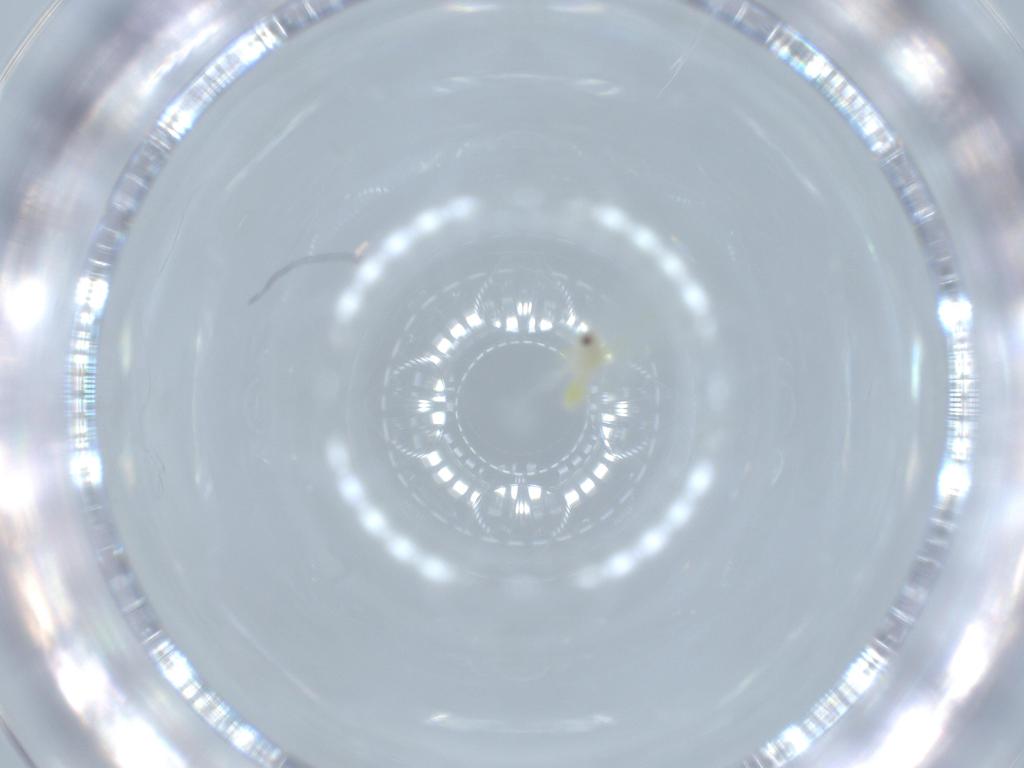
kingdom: Animalia
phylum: Arthropoda
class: Insecta
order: Hemiptera
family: Aleyrodidae
